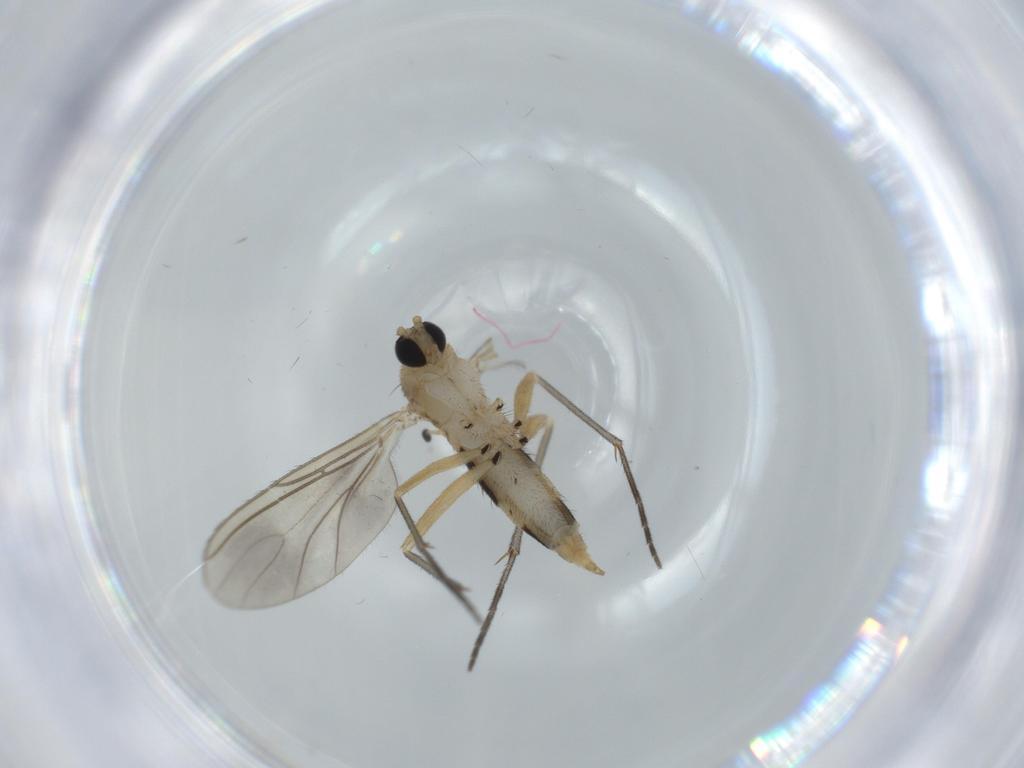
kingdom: Animalia
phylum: Arthropoda
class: Insecta
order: Diptera
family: Sciaridae
